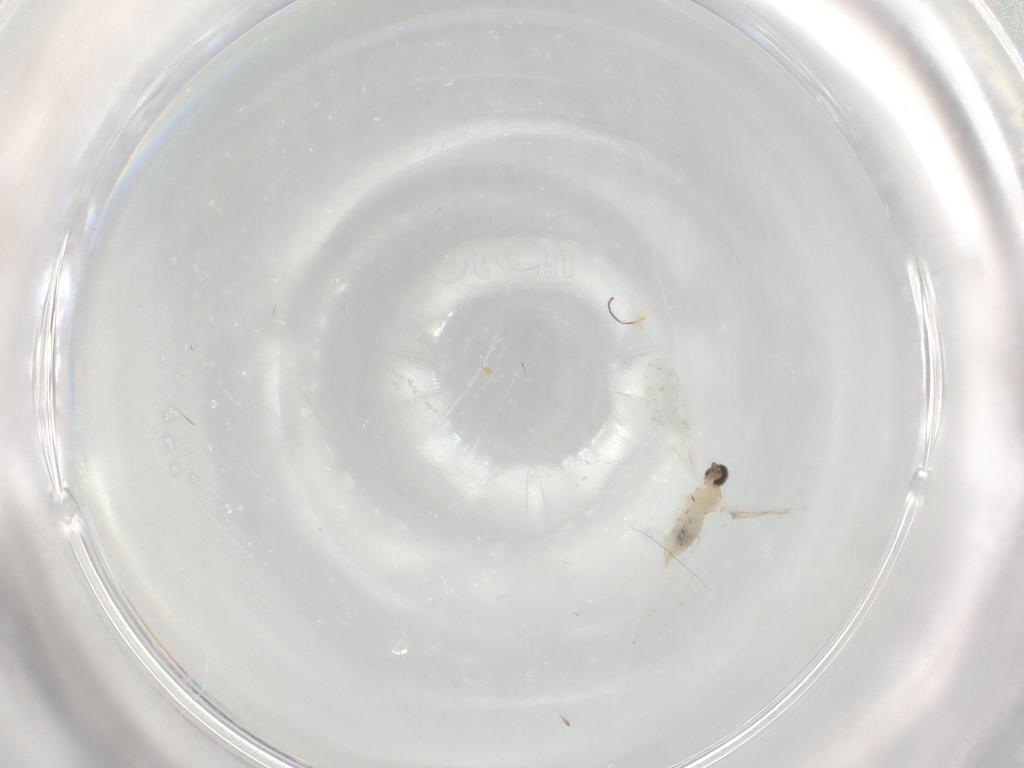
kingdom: Animalia
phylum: Arthropoda
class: Insecta
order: Diptera
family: Cecidomyiidae
